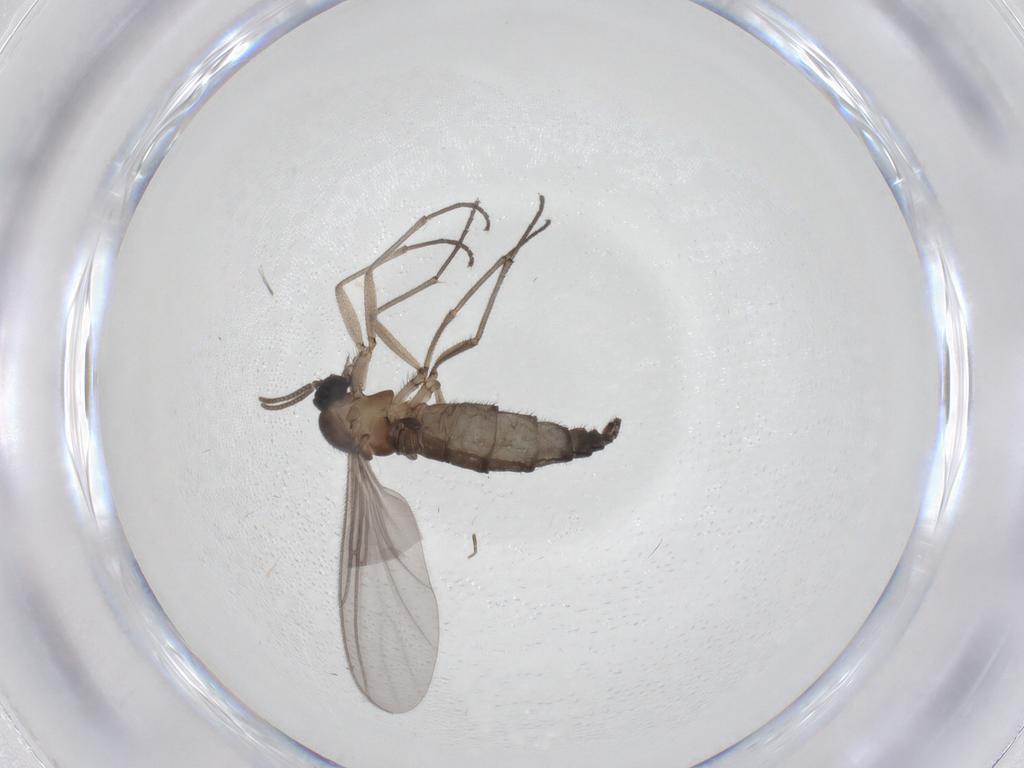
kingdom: Animalia
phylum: Arthropoda
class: Insecta
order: Diptera
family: Phoridae
